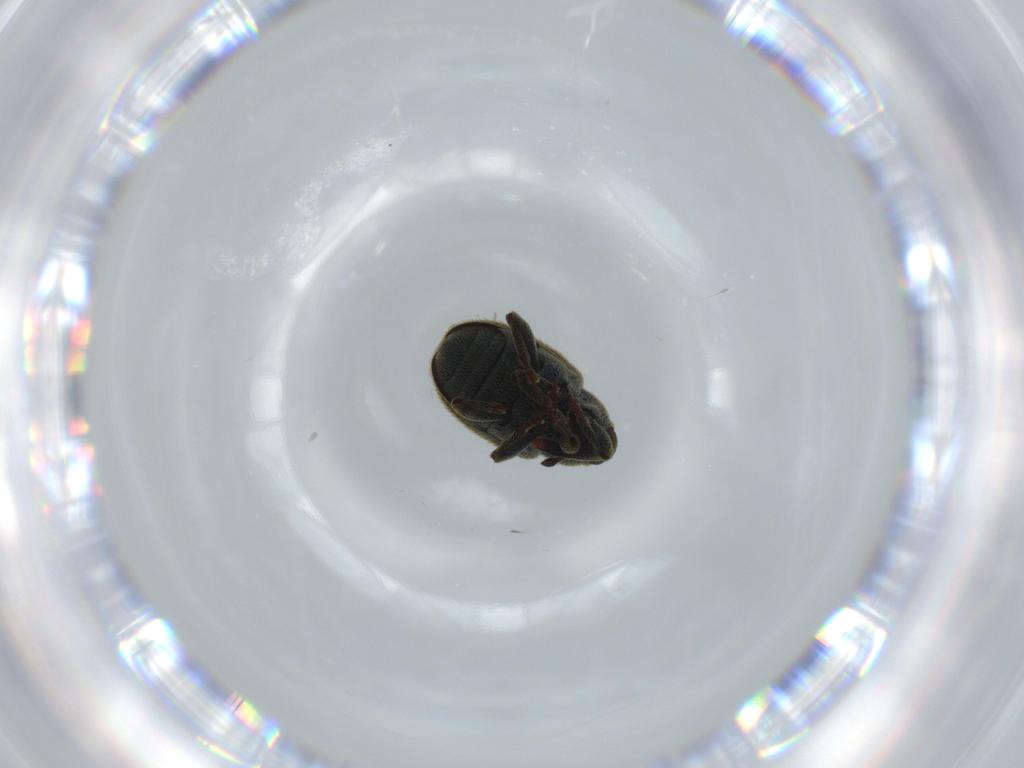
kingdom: Animalia
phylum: Arthropoda
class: Insecta
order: Coleoptera
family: Curculionidae
